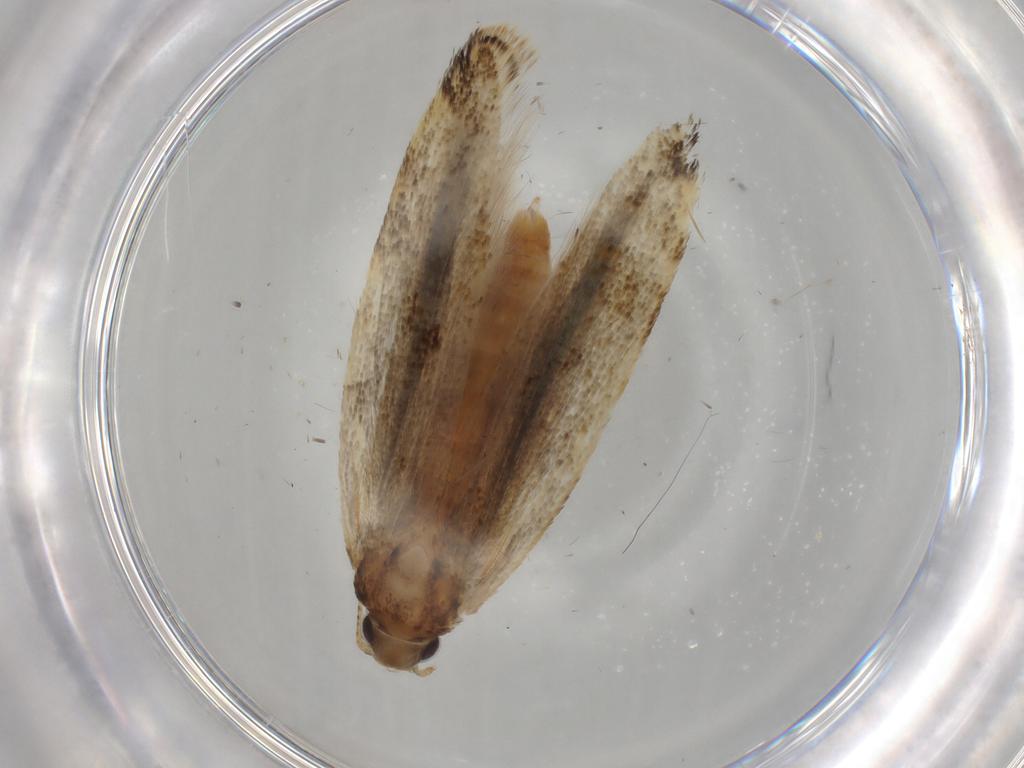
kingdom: Animalia
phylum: Arthropoda
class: Insecta
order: Lepidoptera
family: Gelechiidae
